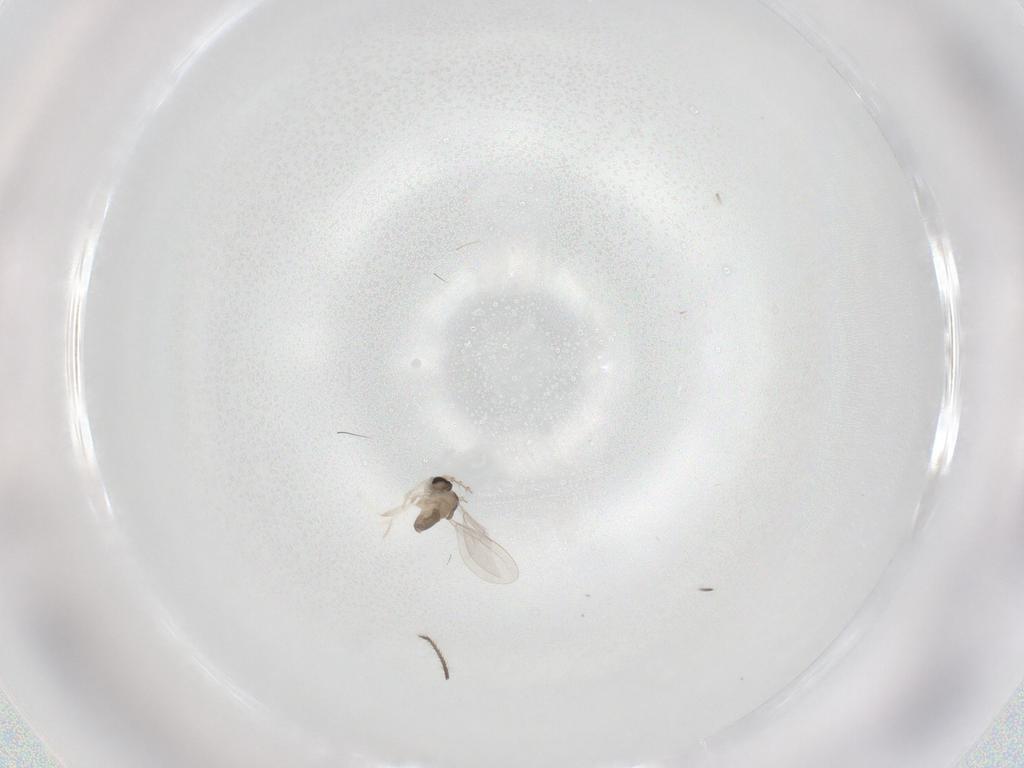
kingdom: Animalia
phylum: Arthropoda
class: Insecta
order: Diptera
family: Cecidomyiidae
